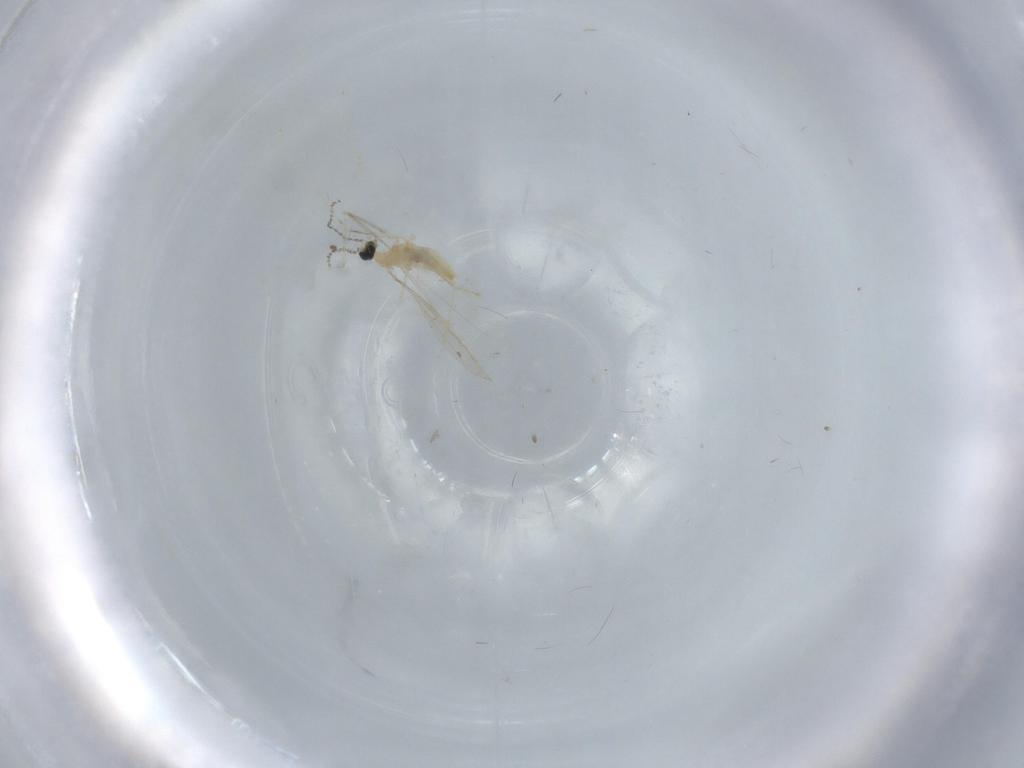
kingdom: Animalia
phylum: Arthropoda
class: Insecta
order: Diptera
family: Cecidomyiidae
